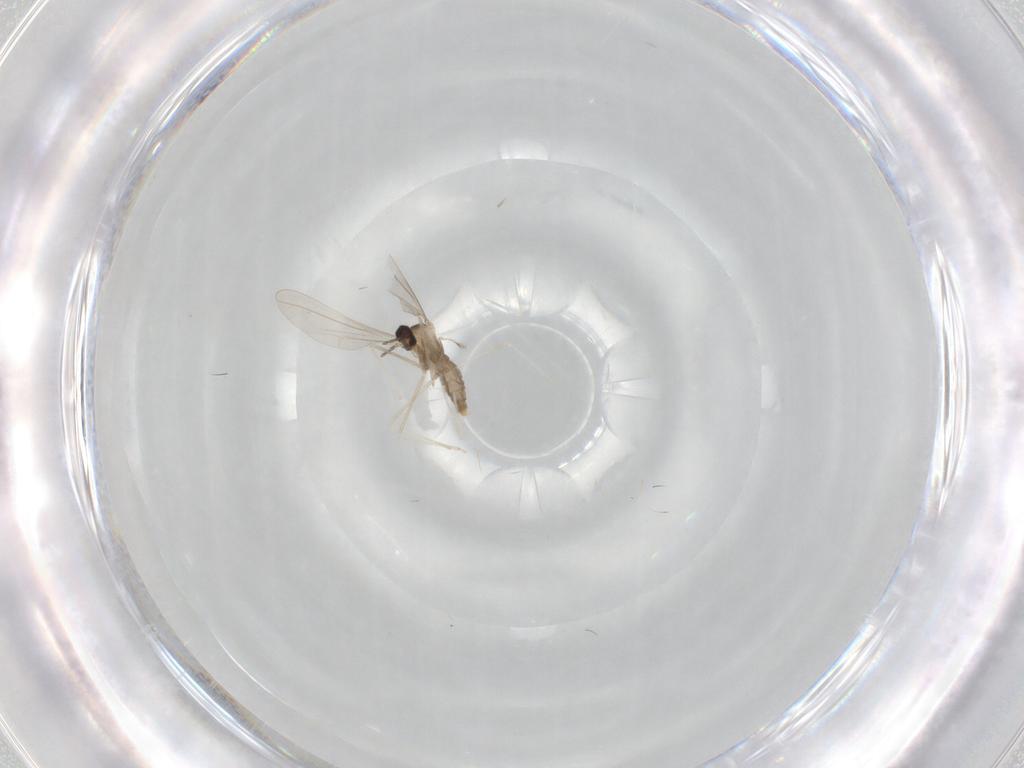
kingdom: Animalia
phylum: Arthropoda
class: Insecta
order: Diptera
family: Cecidomyiidae
